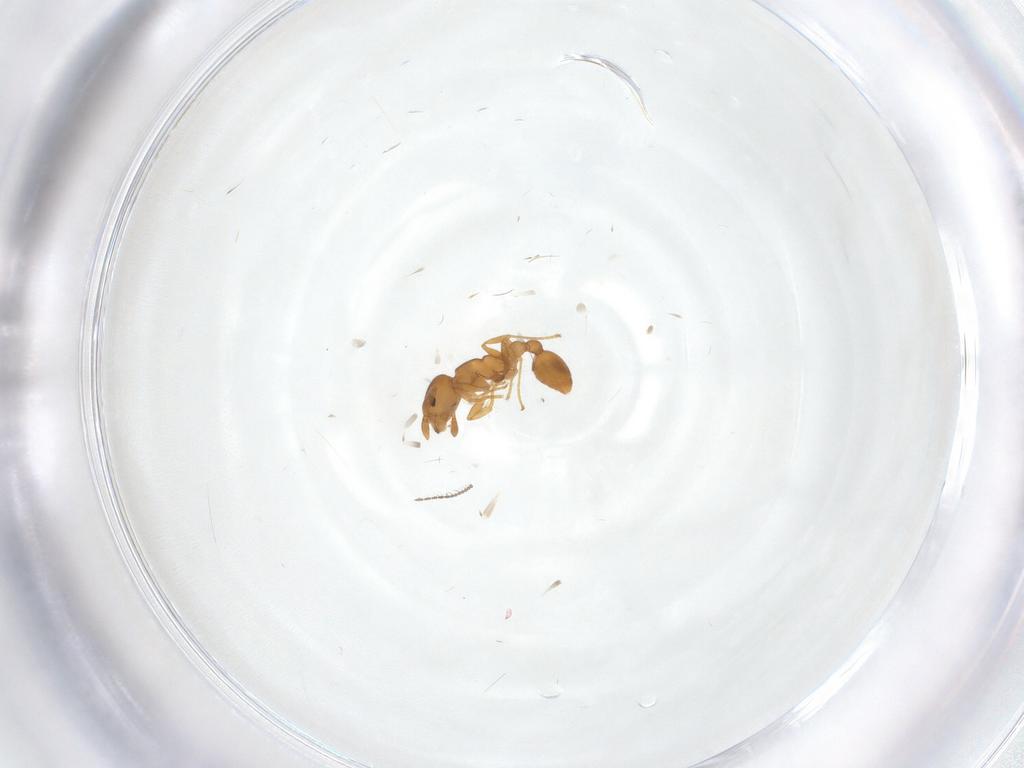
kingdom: Animalia
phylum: Arthropoda
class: Insecta
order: Hymenoptera
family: Formicidae
